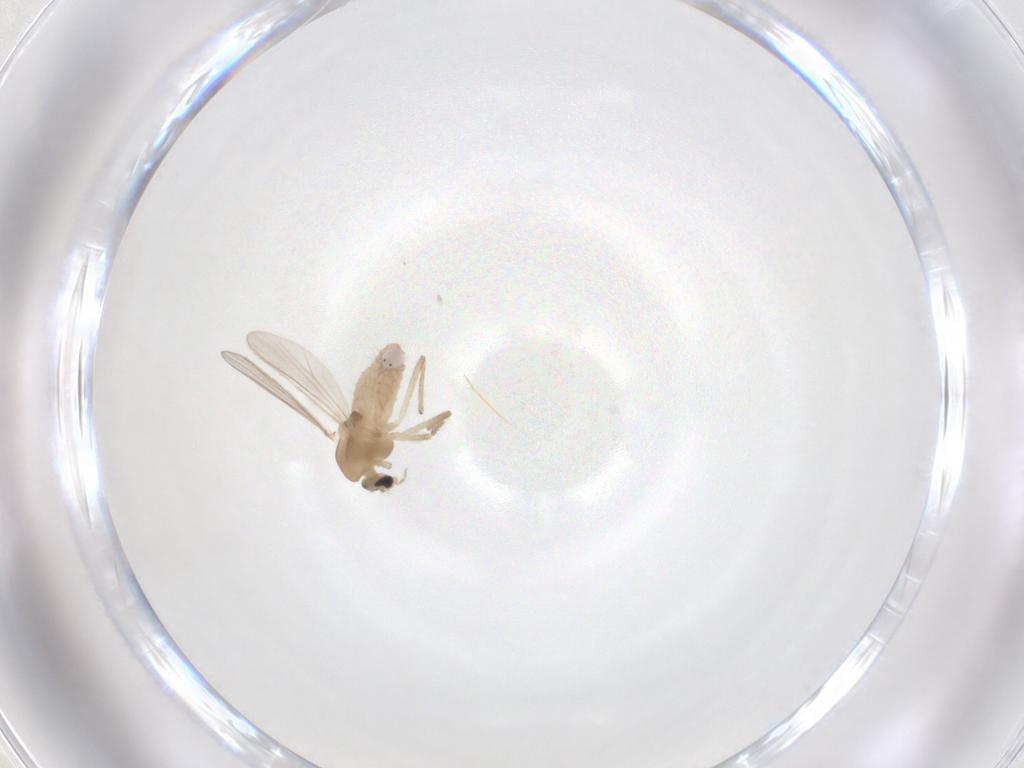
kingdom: Animalia
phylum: Arthropoda
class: Insecta
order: Diptera
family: Chironomidae
